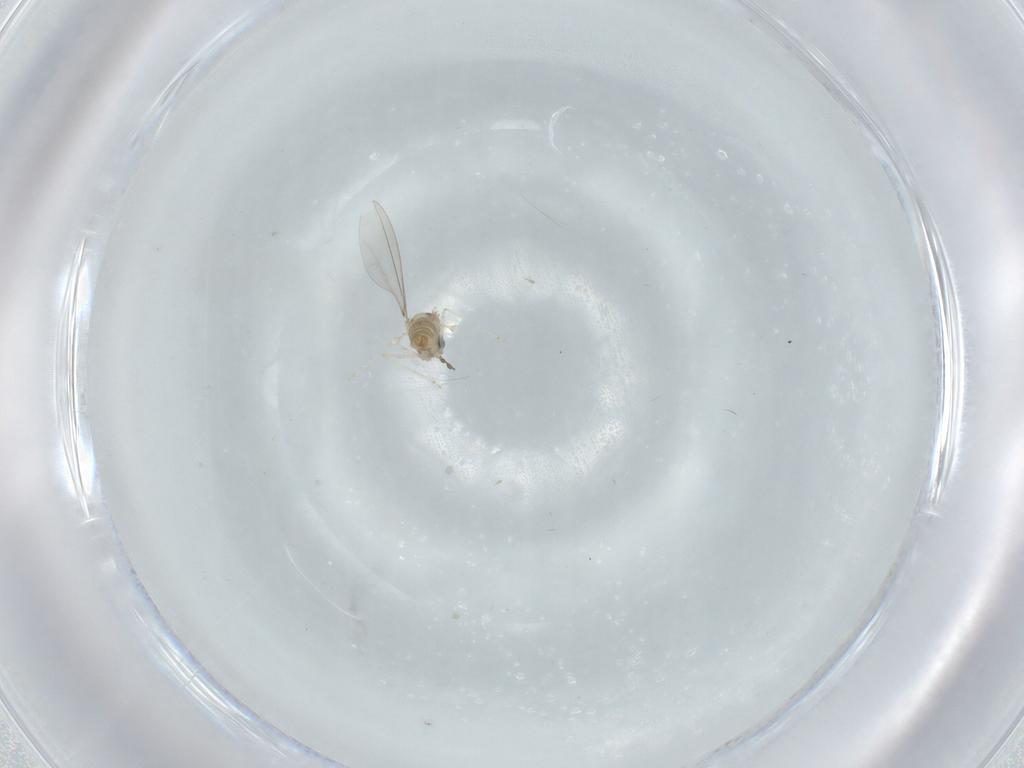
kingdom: Animalia
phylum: Arthropoda
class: Insecta
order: Diptera
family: Cecidomyiidae
